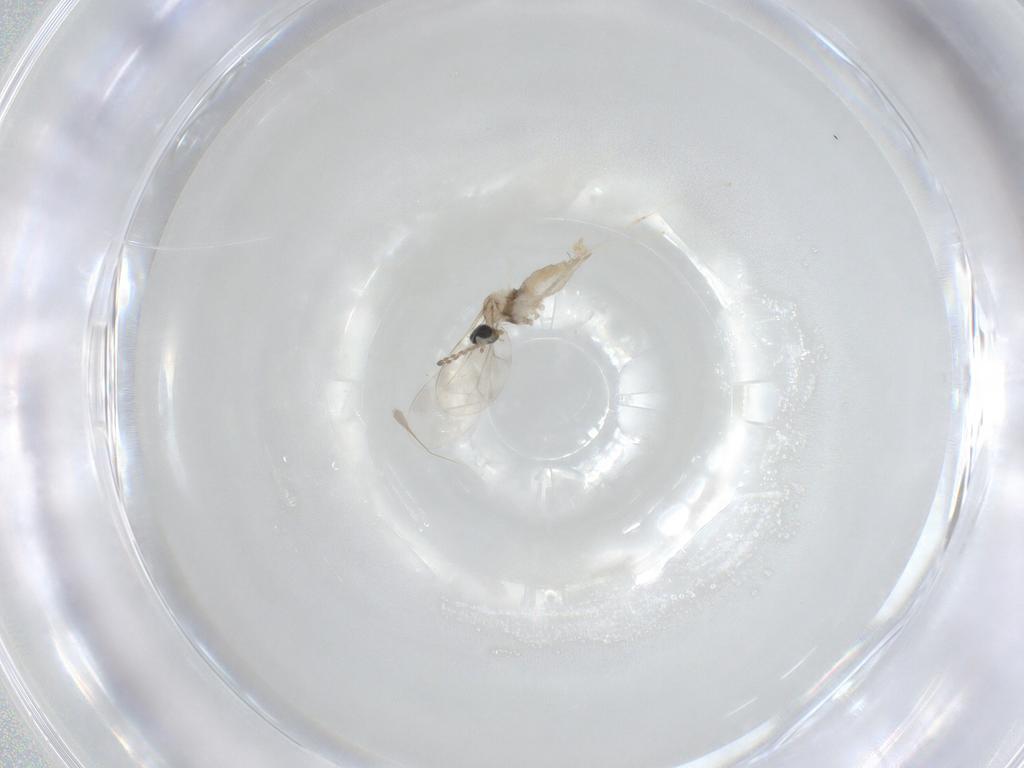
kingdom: Animalia
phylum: Arthropoda
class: Insecta
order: Diptera
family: Cecidomyiidae
